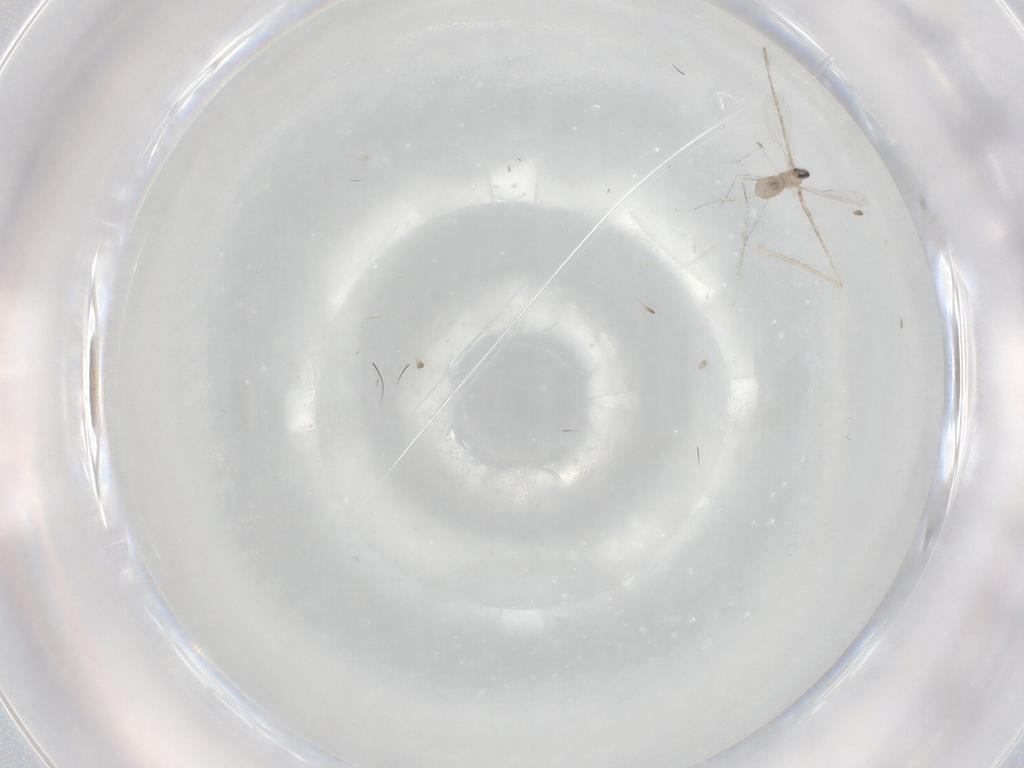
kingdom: Animalia
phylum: Arthropoda
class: Insecta
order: Diptera
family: Cecidomyiidae
